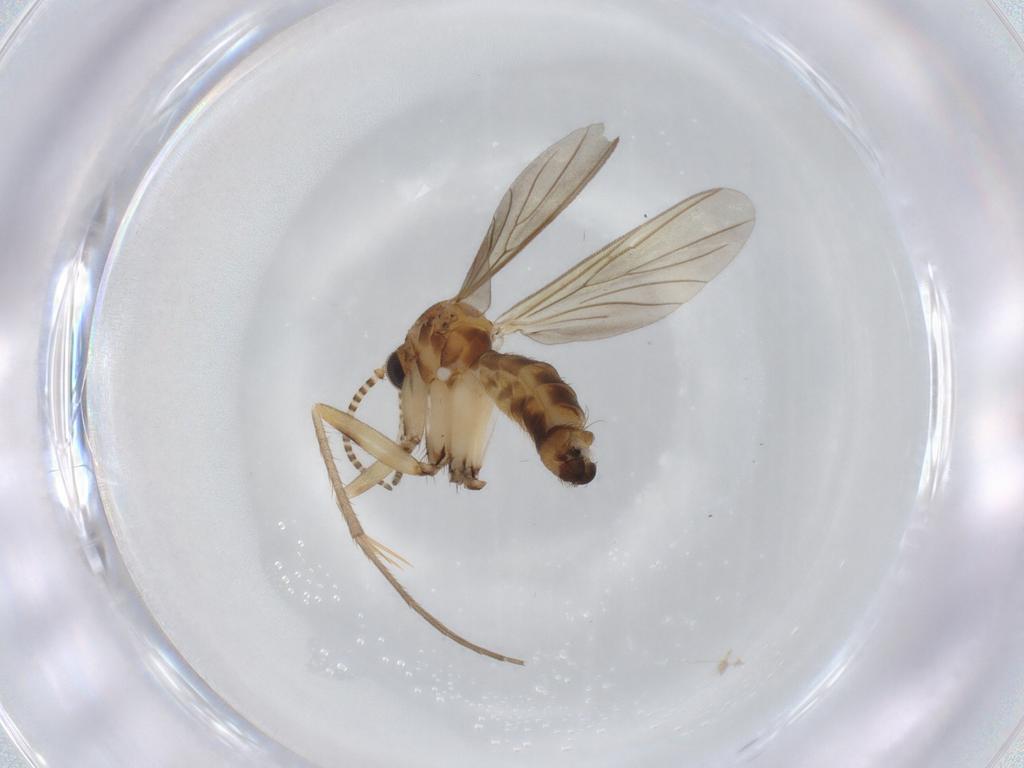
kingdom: Animalia
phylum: Arthropoda
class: Insecta
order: Diptera
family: Mycetophilidae
